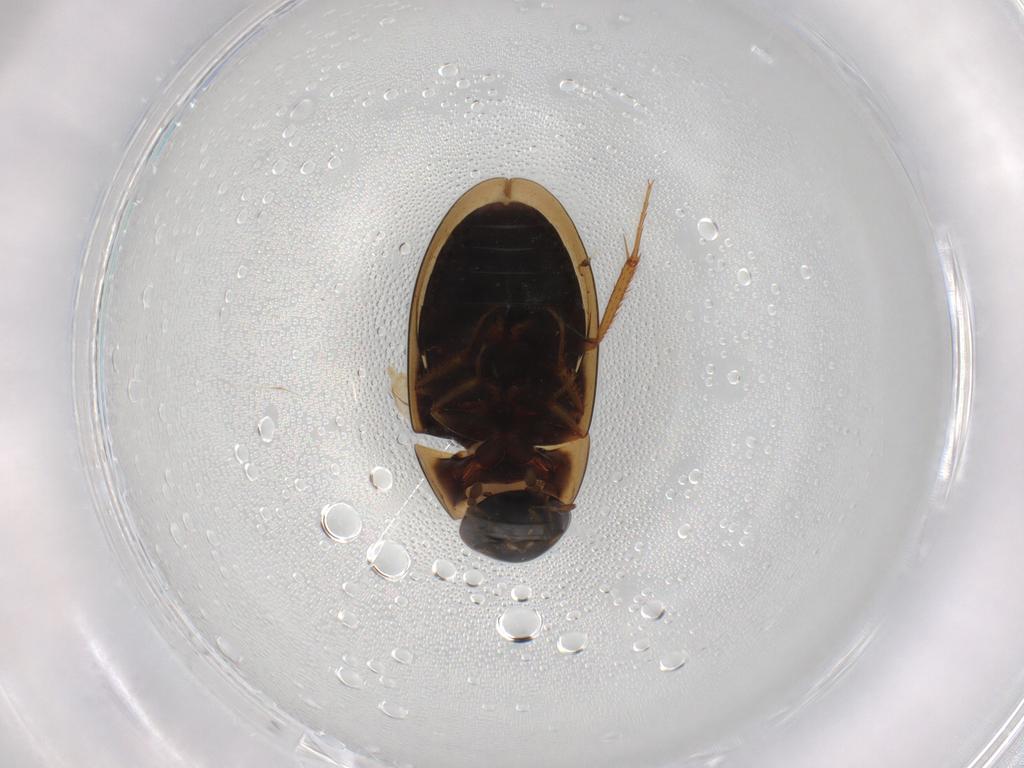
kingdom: Animalia
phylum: Arthropoda
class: Insecta
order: Coleoptera
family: Hydrophilidae
